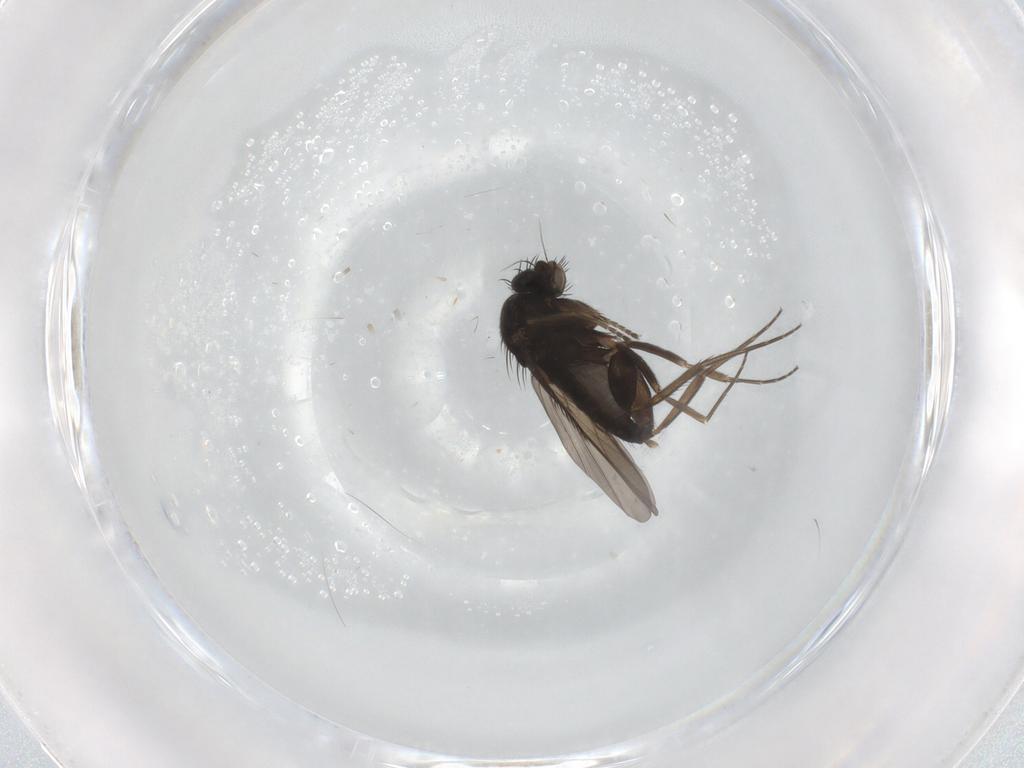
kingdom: Animalia
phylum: Arthropoda
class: Insecta
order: Diptera
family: Phoridae
